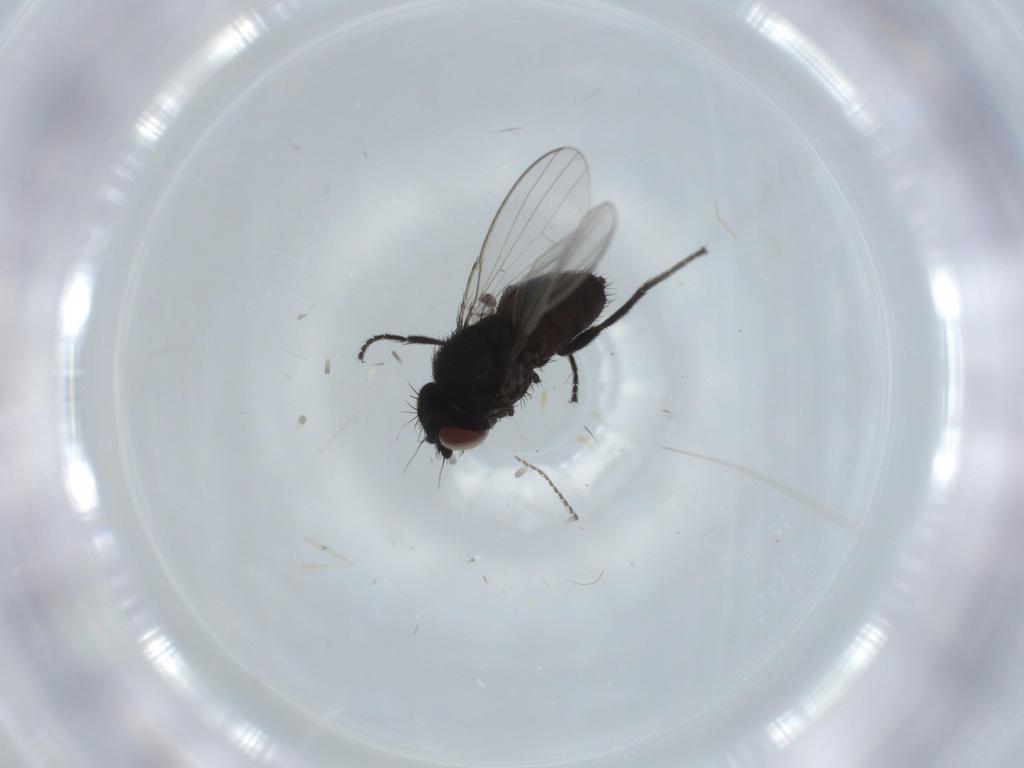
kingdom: Animalia
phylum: Arthropoda
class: Insecta
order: Diptera
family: Milichiidae
